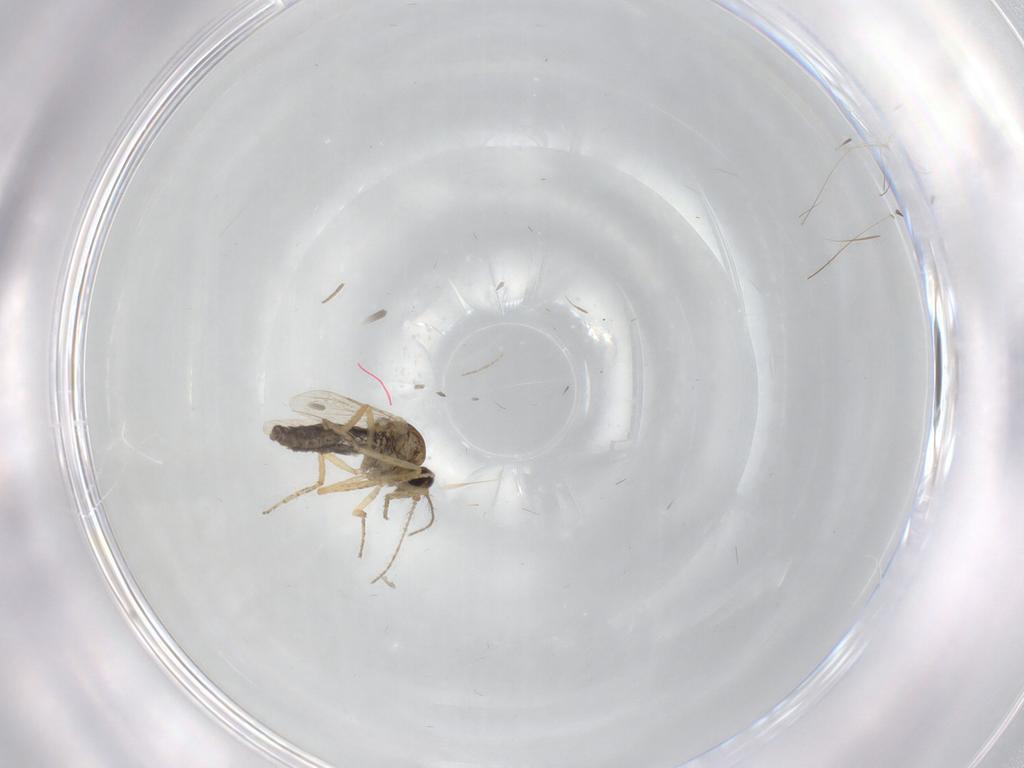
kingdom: Animalia
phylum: Arthropoda
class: Insecta
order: Diptera
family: Ceratopogonidae
